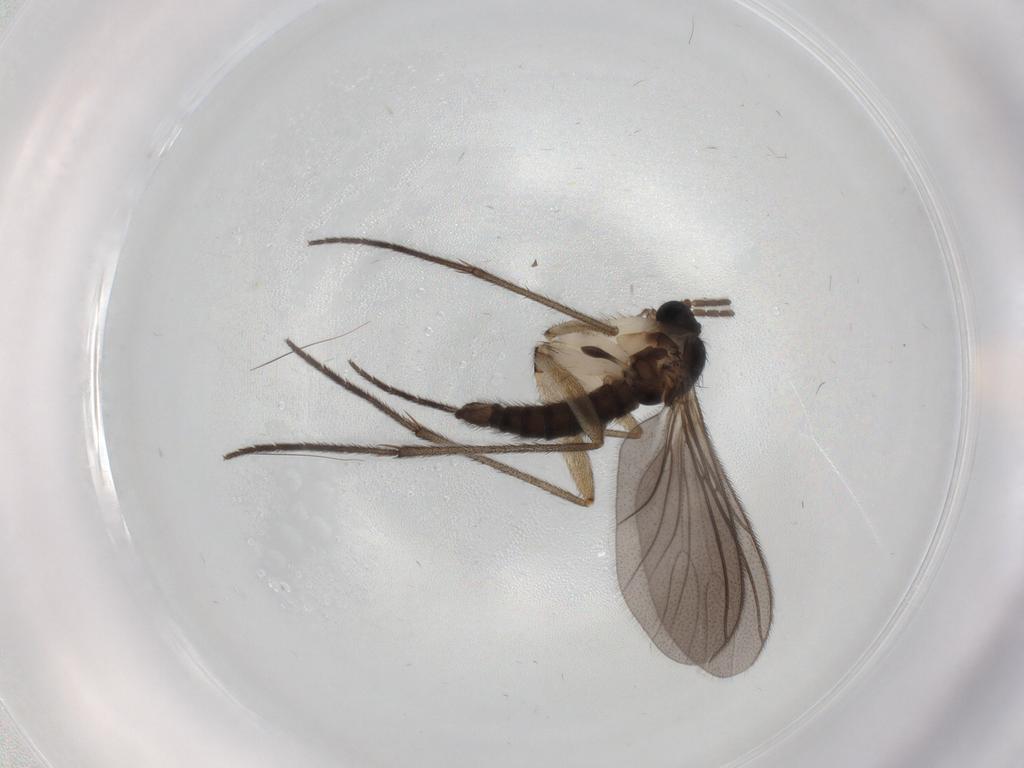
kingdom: Animalia
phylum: Arthropoda
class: Insecta
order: Diptera
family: Sciaridae
